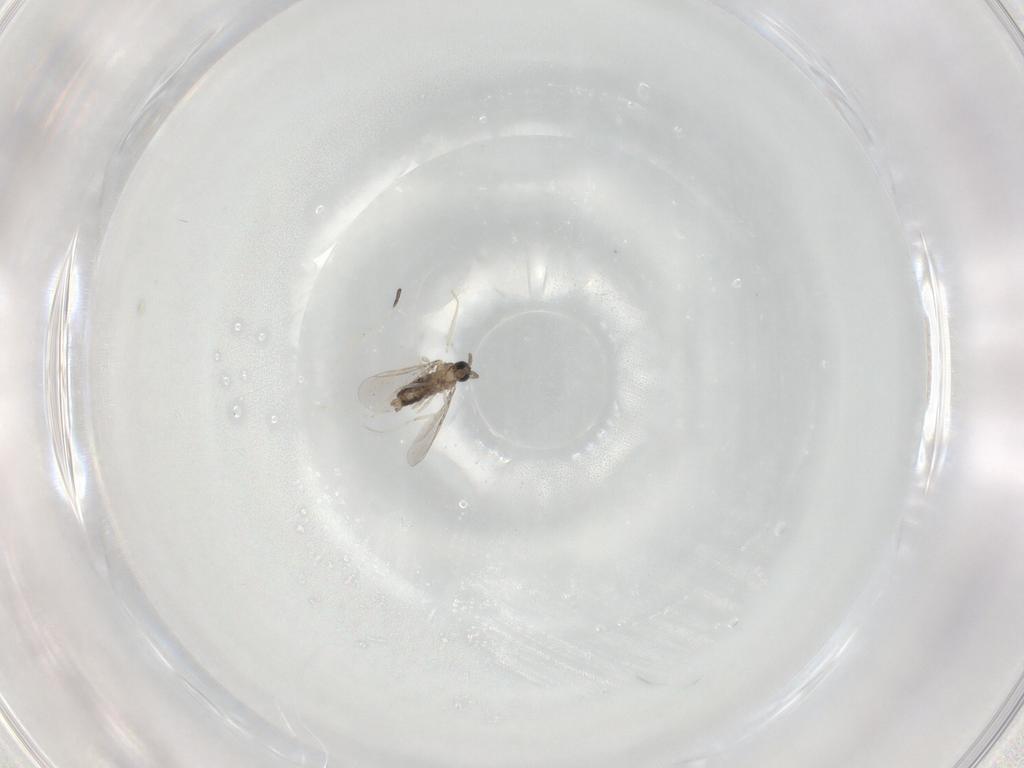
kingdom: Animalia
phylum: Arthropoda
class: Insecta
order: Diptera
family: Cecidomyiidae
